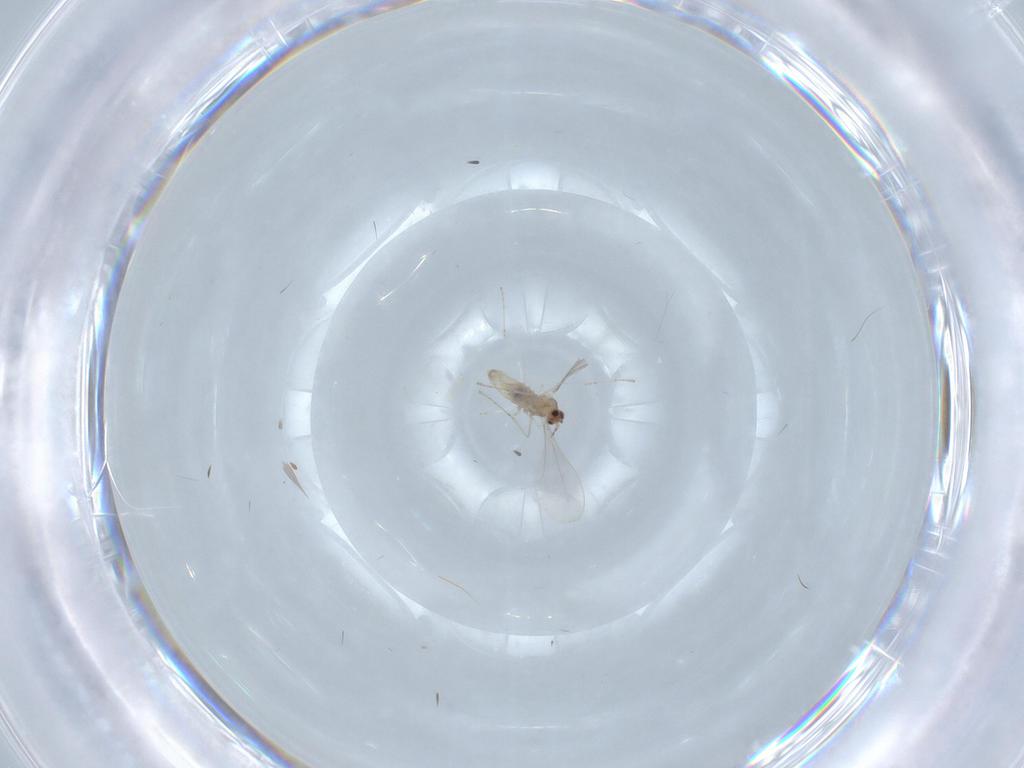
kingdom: Animalia
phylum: Arthropoda
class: Insecta
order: Diptera
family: Cecidomyiidae
